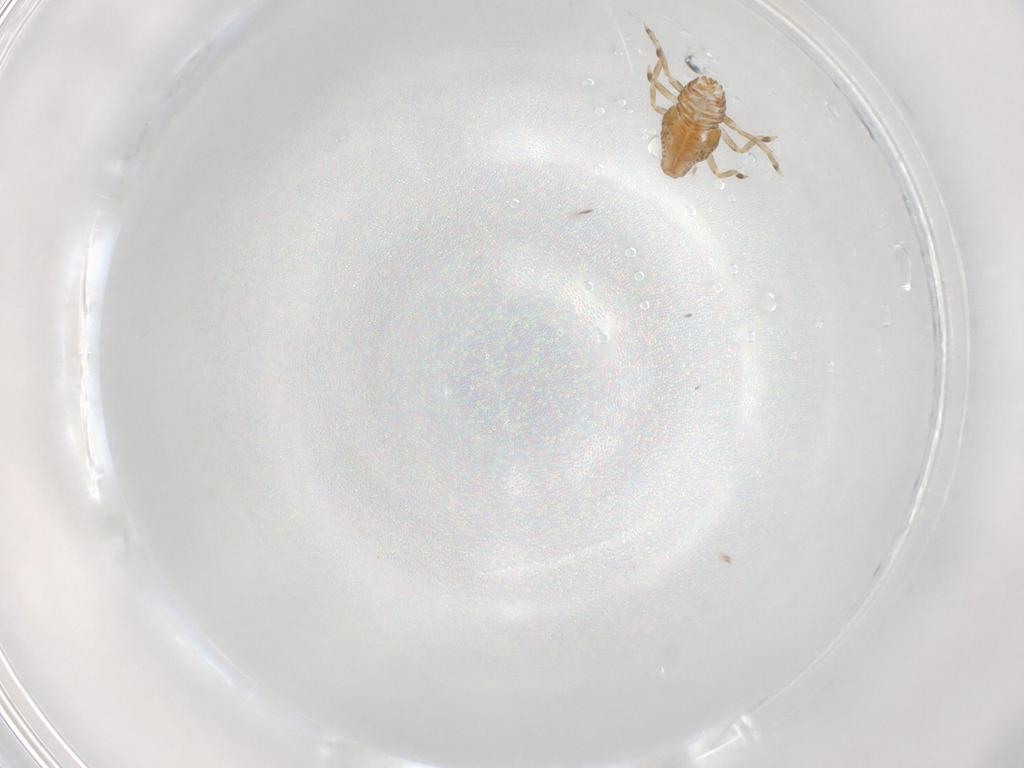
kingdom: Animalia
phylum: Arthropoda
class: Insecta
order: Hemiptera
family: Flatidae
